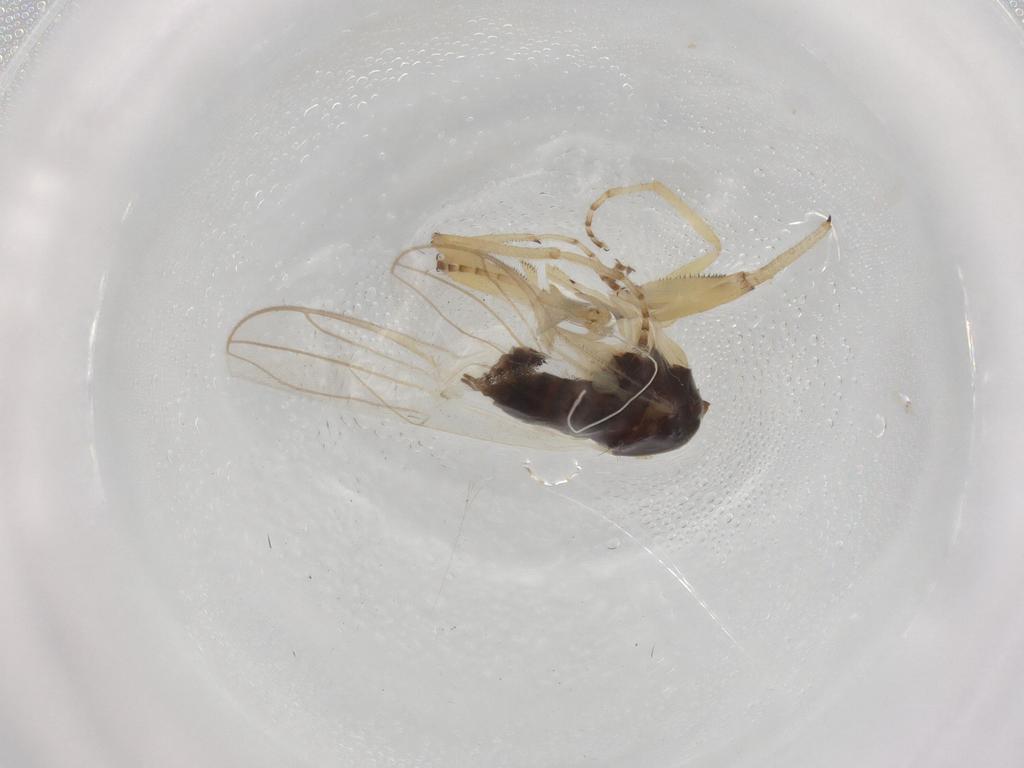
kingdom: Animalia
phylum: Arthropoda
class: Insecta
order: Diptera
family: Hybotidae
